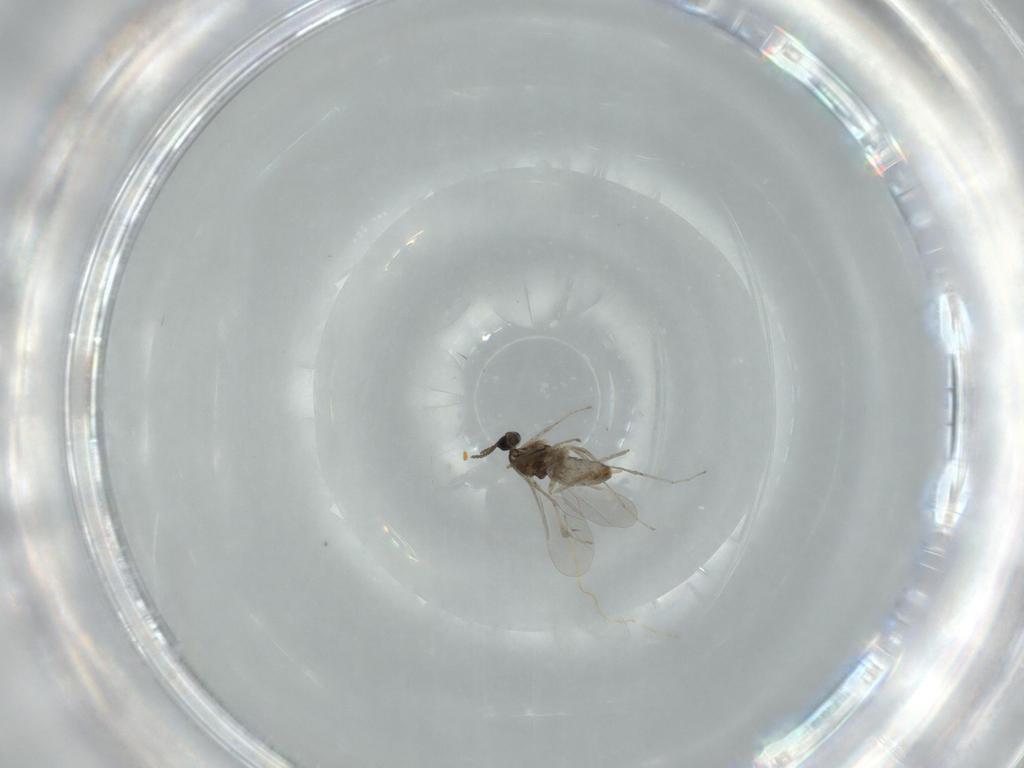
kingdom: Animalia
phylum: Arthropoda
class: Insecta
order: Diptera
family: Cecidomyiidae
